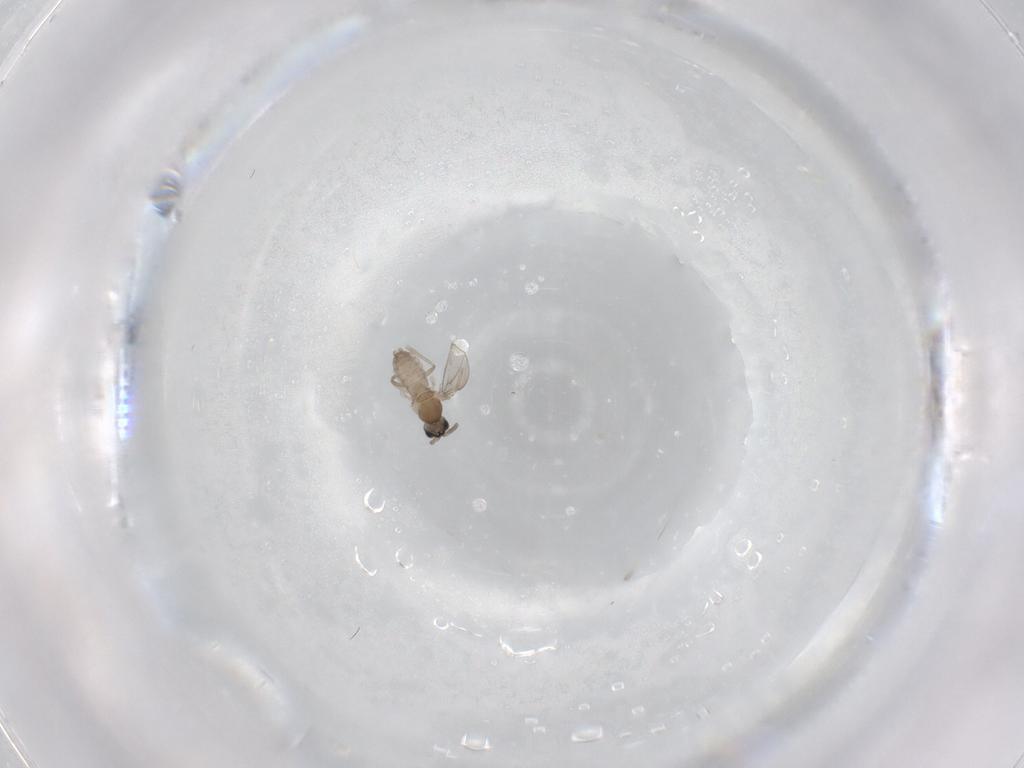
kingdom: Animalia
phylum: Arthropoda
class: Insecta
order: Diptera
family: Cecidomyiidae
